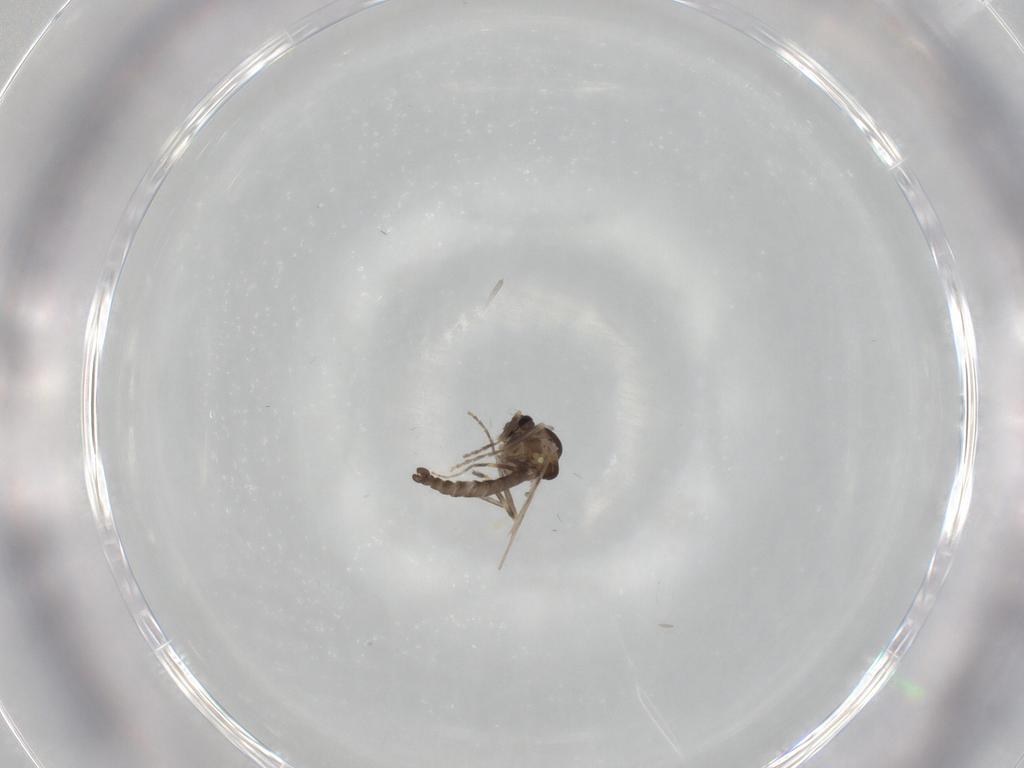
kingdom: Animalia
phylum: Arthropoda
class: Insecta
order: Diptera
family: Ceratopogonidae
